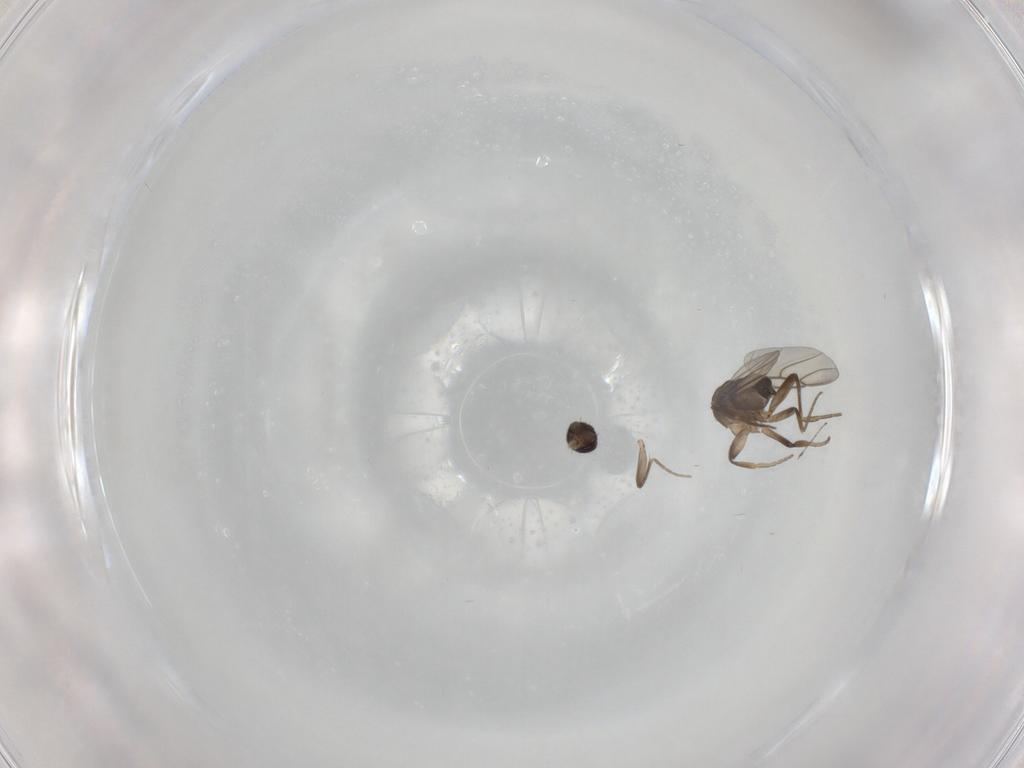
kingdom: Animalia
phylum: Arthropoda
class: Insecta
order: Diptera
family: Phoridae
